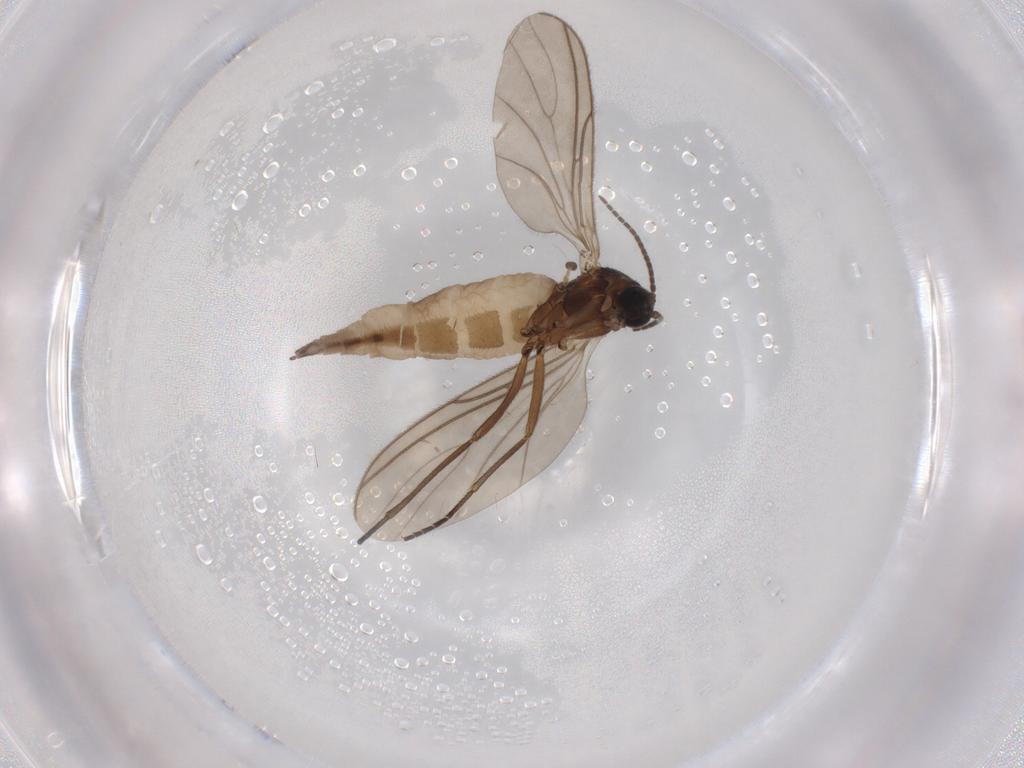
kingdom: Animalia
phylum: Arthropoda
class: Insecta
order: Diptera
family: Sciaridae
